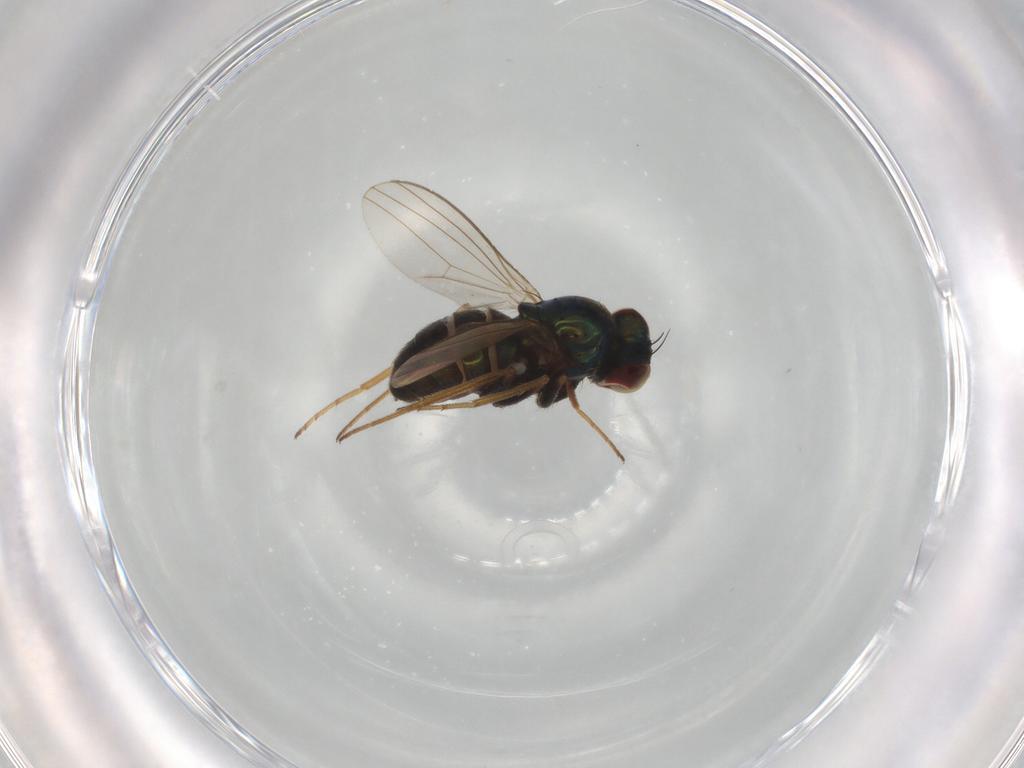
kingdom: Animalia
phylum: Arthropoda
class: Insecta
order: Diptera
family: Dolichopodidae
